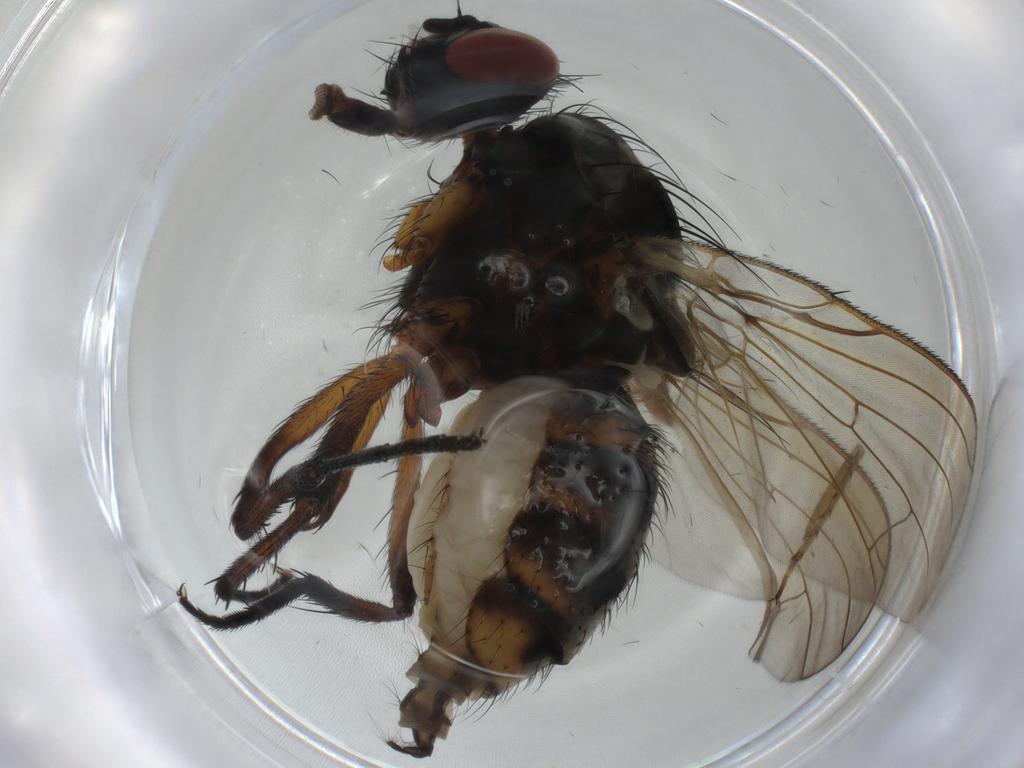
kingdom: Animalia
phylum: Arthropoda
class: Insecta
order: Diptera
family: Anthomyiidae
